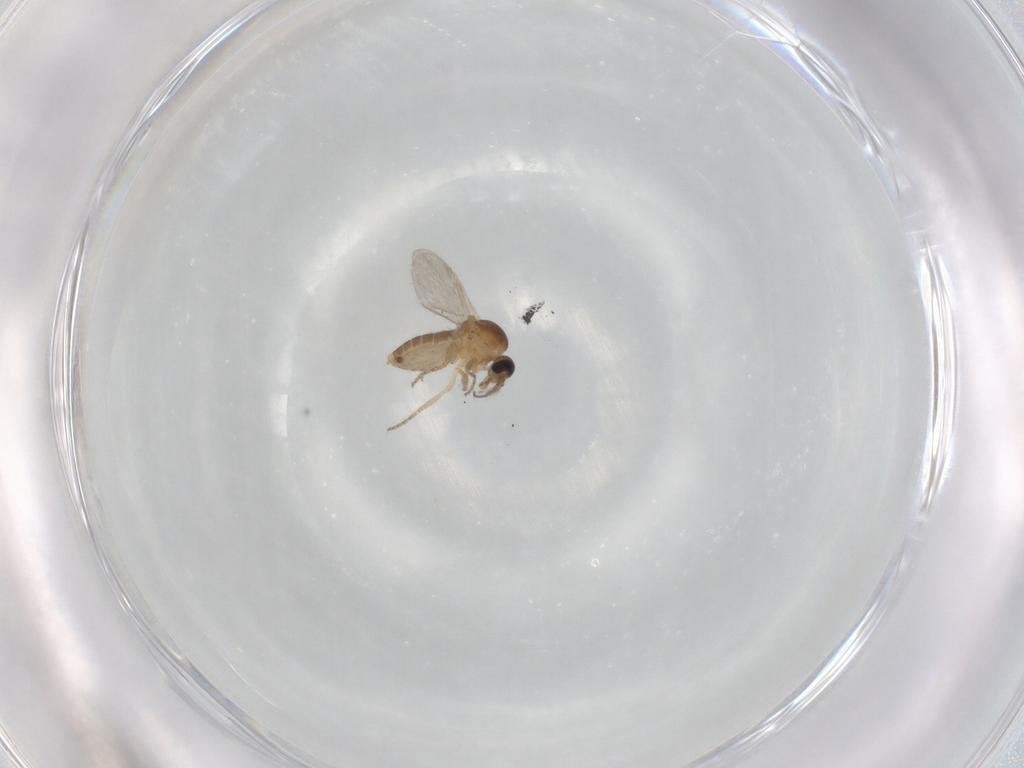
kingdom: Animalia
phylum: Arthropoda
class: Insecta
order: Diptera
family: Ceratopogonidae
